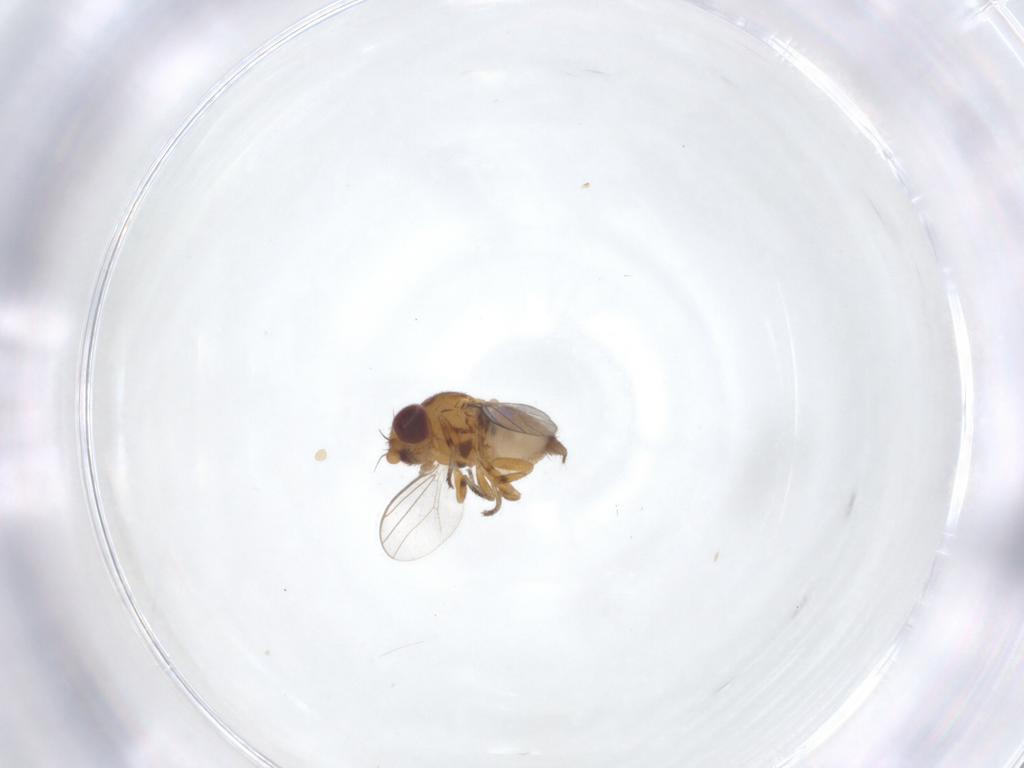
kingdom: Animalia
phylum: Arthropoda
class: Insecta
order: Diptera
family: Chloropidae
